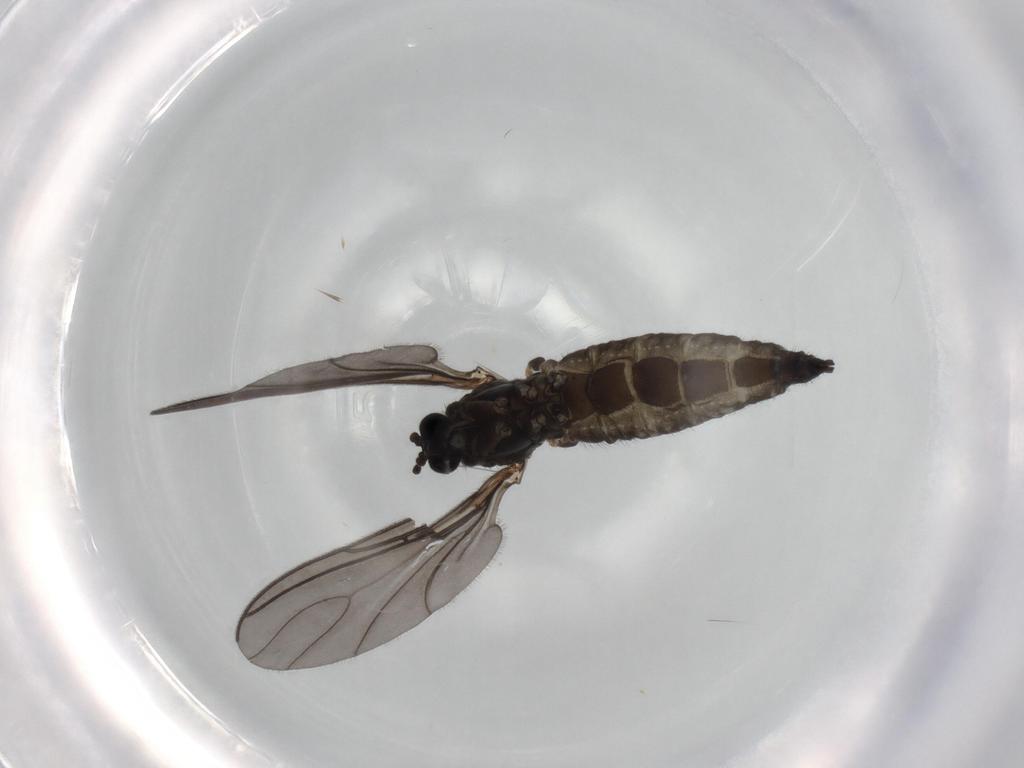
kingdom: Animalia
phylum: Arthropoda
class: Insecta
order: Diptera
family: Sciaridae
